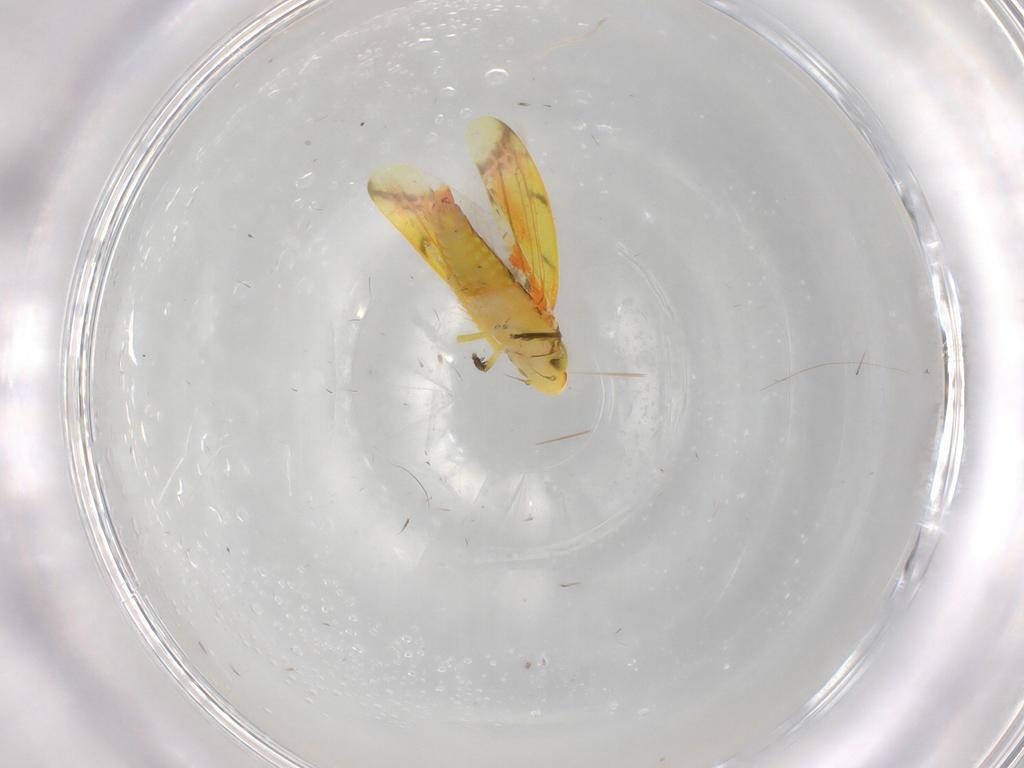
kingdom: Animalia
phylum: Arthropoda
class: Insecta
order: Hemiptera
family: Cicadellidae
